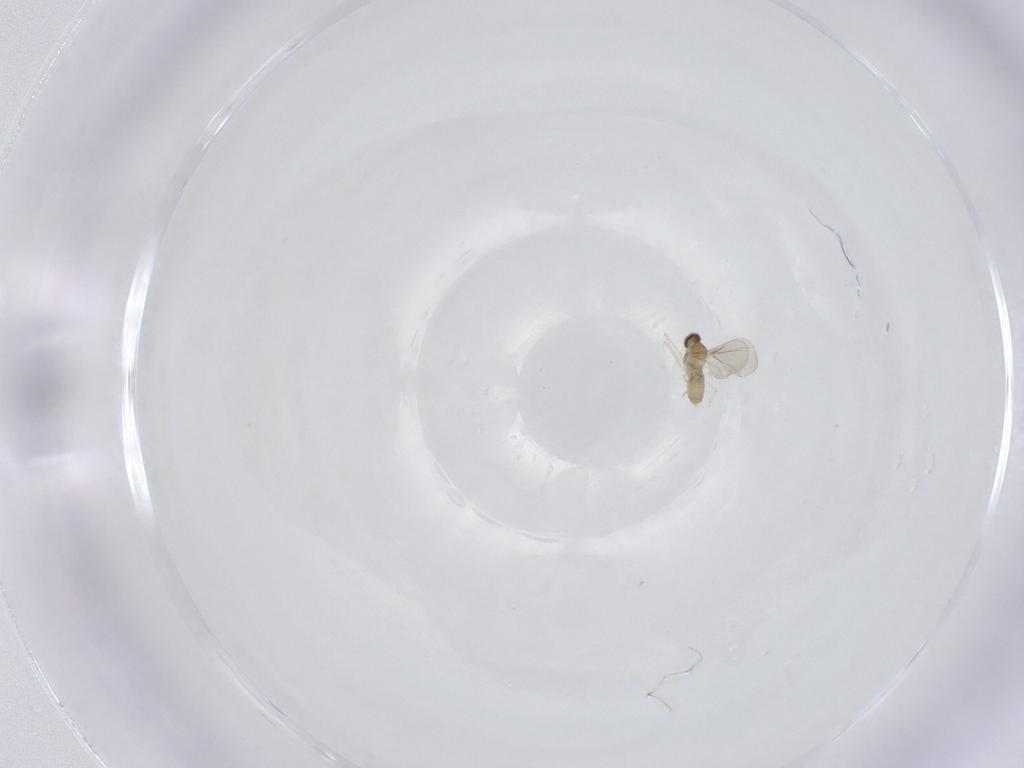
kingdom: Animalia
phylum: Arthropoda
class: Insecta
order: Diptera
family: Cecidomyiidae
